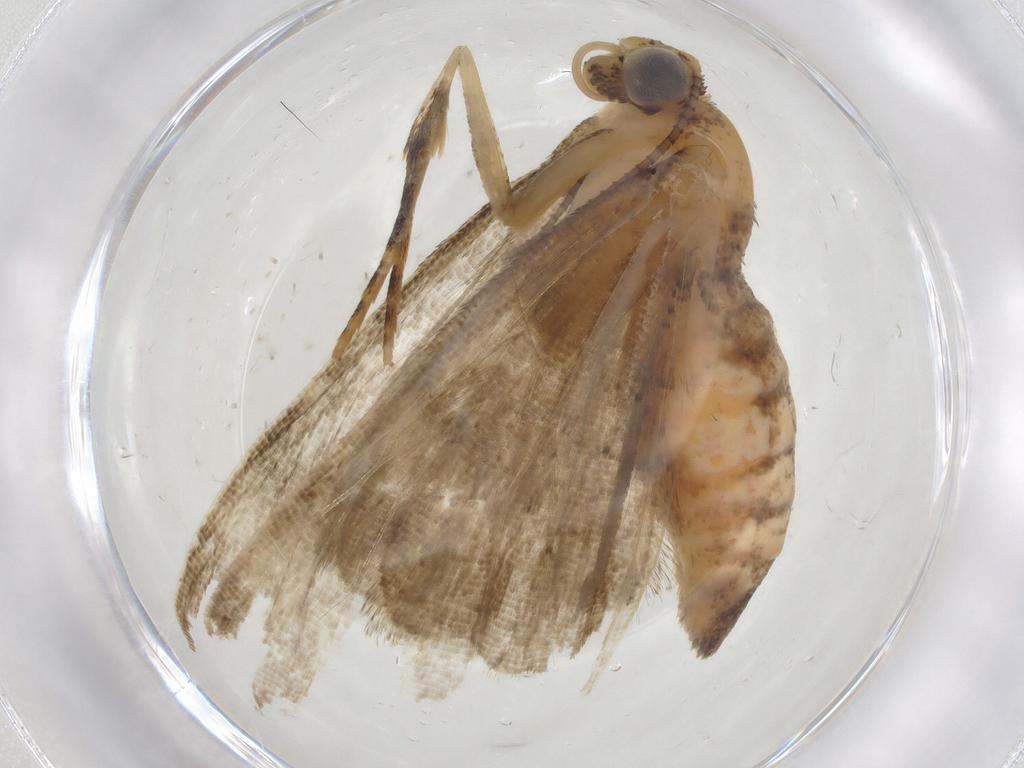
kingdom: Animalia
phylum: Arthropoda
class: Insecta
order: Lepidoptera
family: Geometridae
